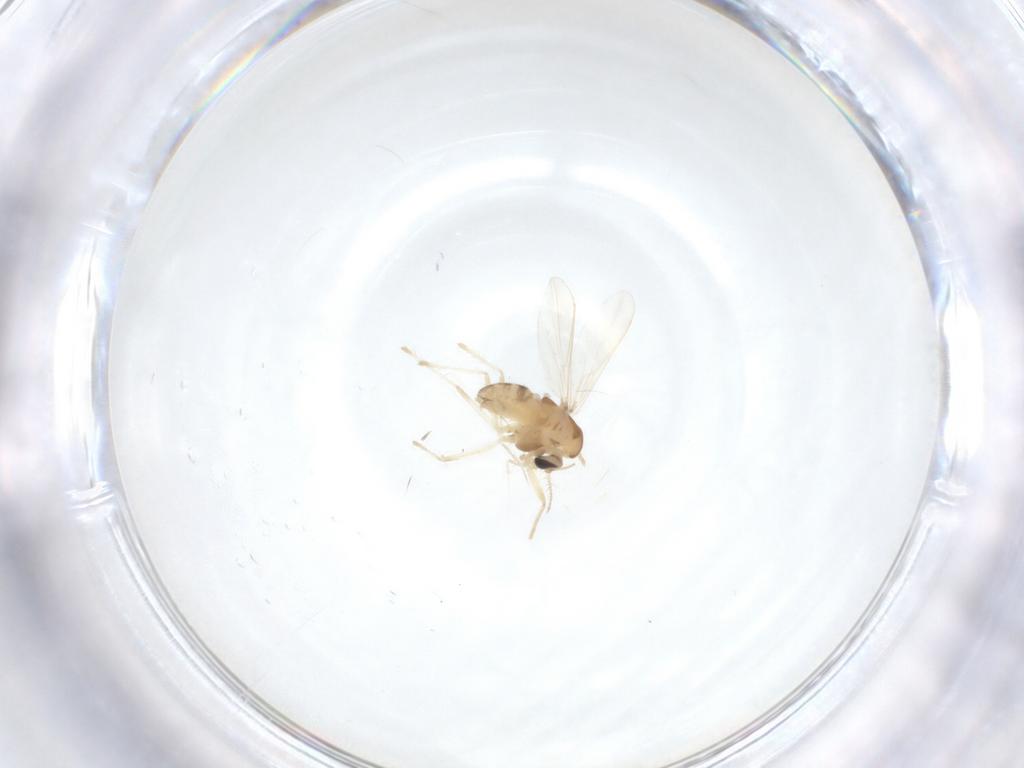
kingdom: Animalia
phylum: Arthropoda
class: Insecta
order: Diptera
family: Chironomidae
